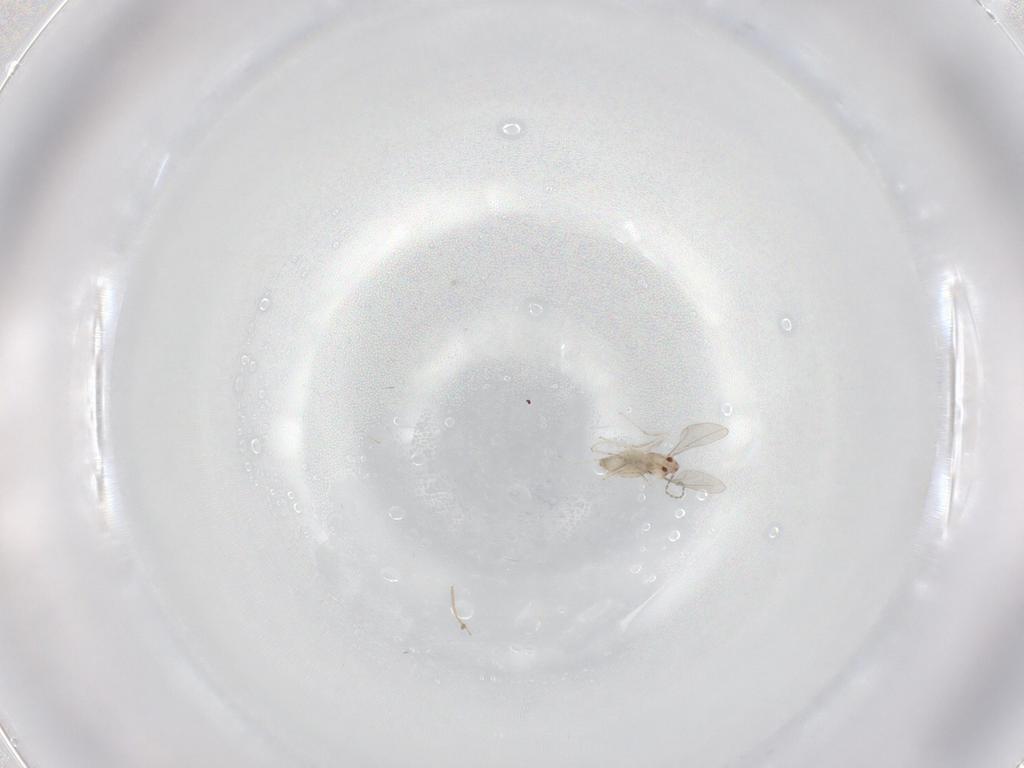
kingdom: Animalia
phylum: Arthropoda
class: Insecta
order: Diptera
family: Cecidomyiidae
